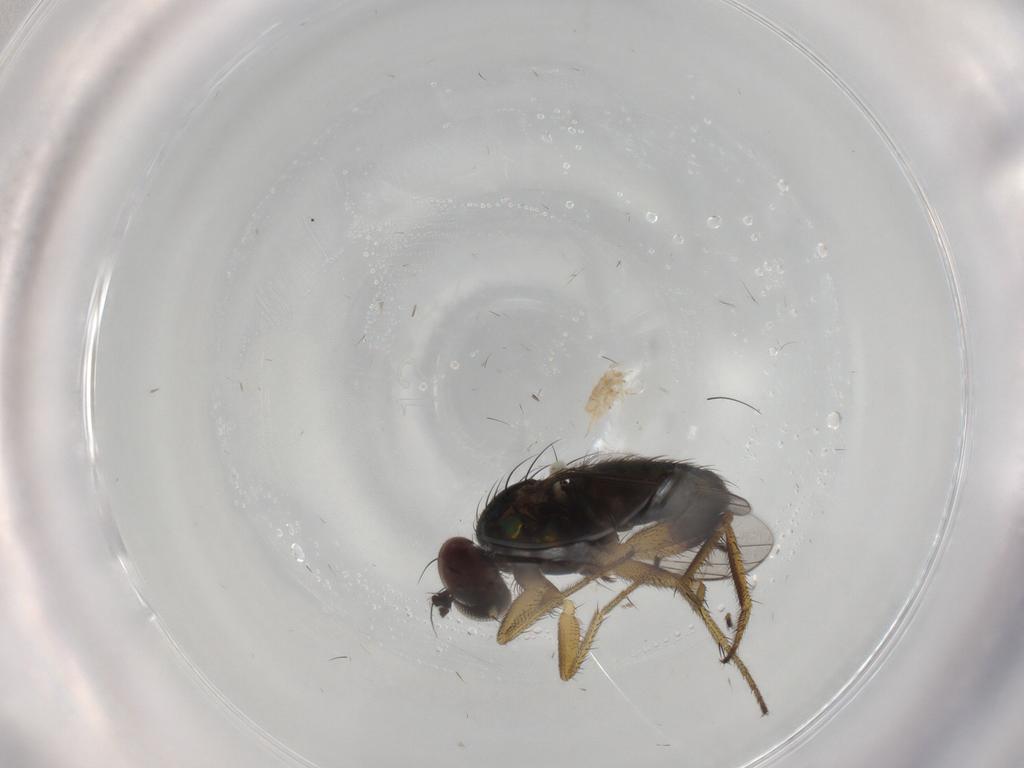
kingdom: Animalia
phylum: Arthropoda
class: Insecta
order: Diptera
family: Dolichopodidae
